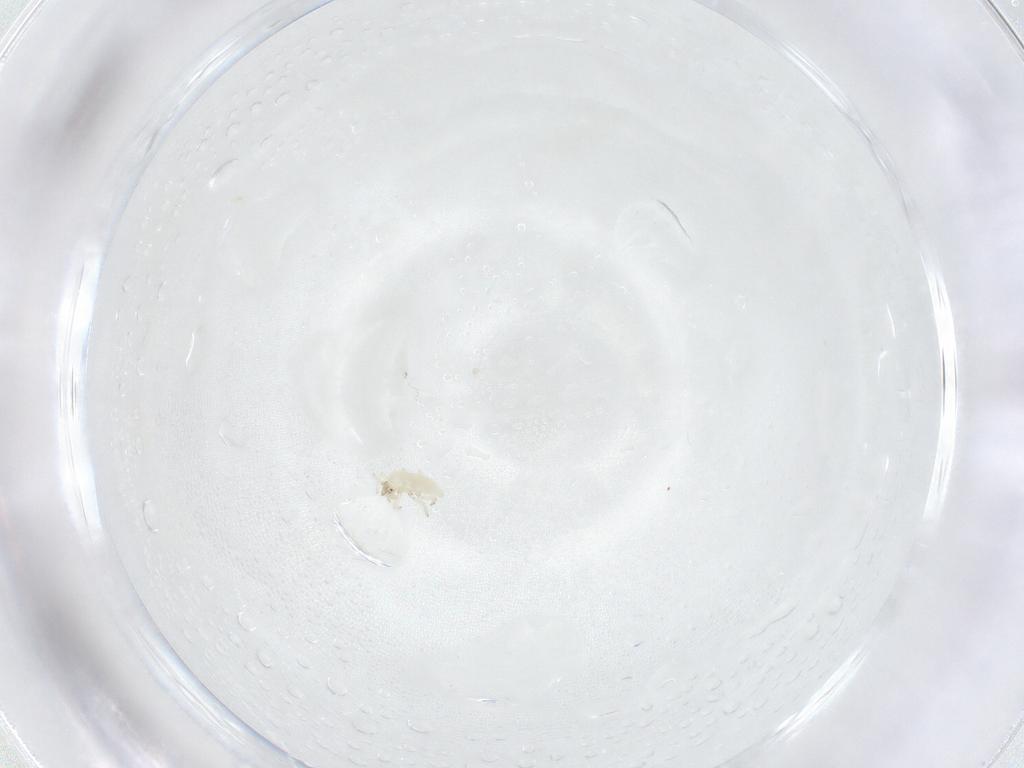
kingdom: Animalia
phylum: Arthropoda
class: Insecta
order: Neuroptera
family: Coniopterygidae
